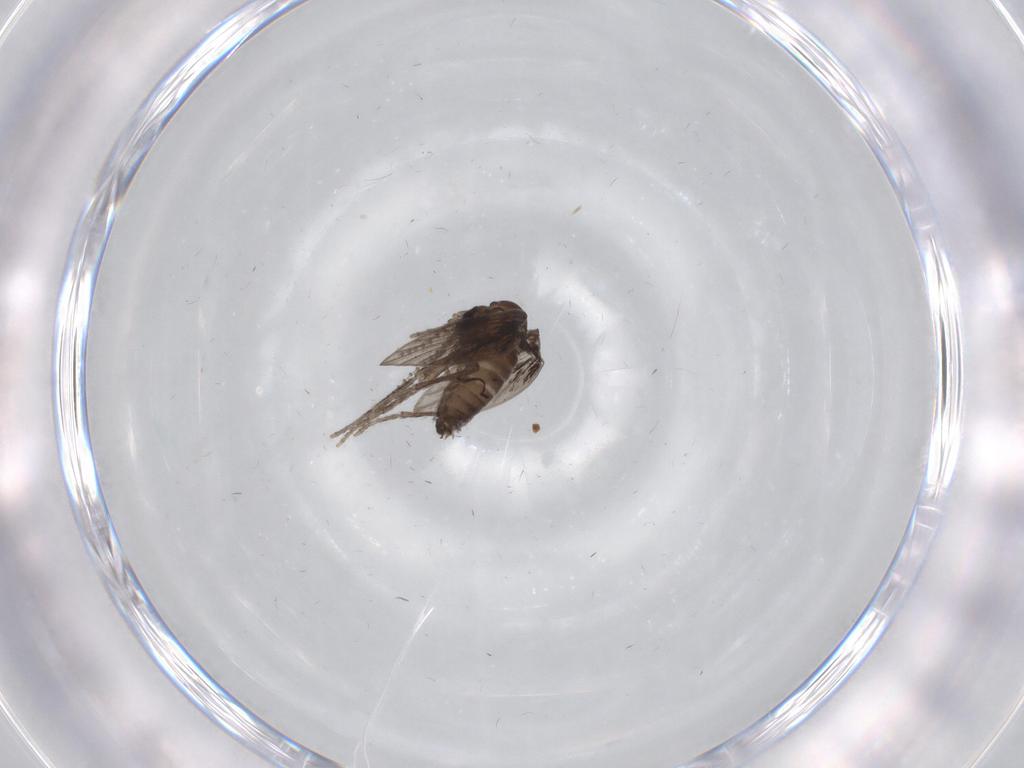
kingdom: Animalia
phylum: Arthropoda
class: Insecta
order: Diptera
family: Psychodidae
